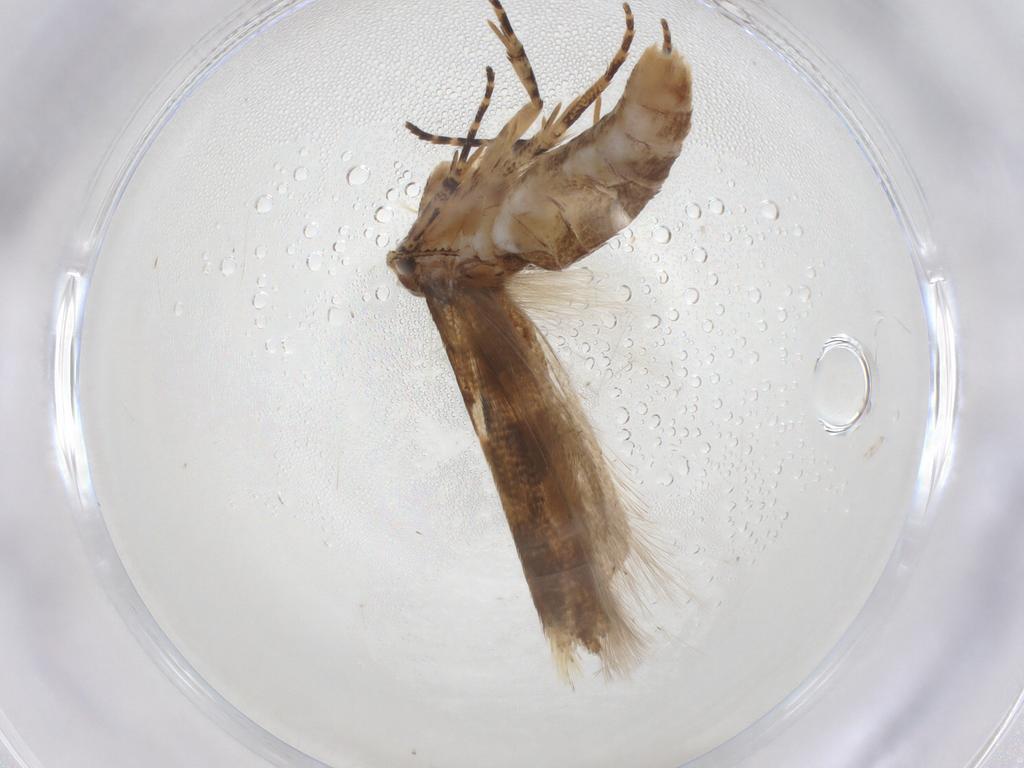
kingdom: Animalia
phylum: Arthropoda
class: Insecta
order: Lepidoptera
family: Gelechiidae
